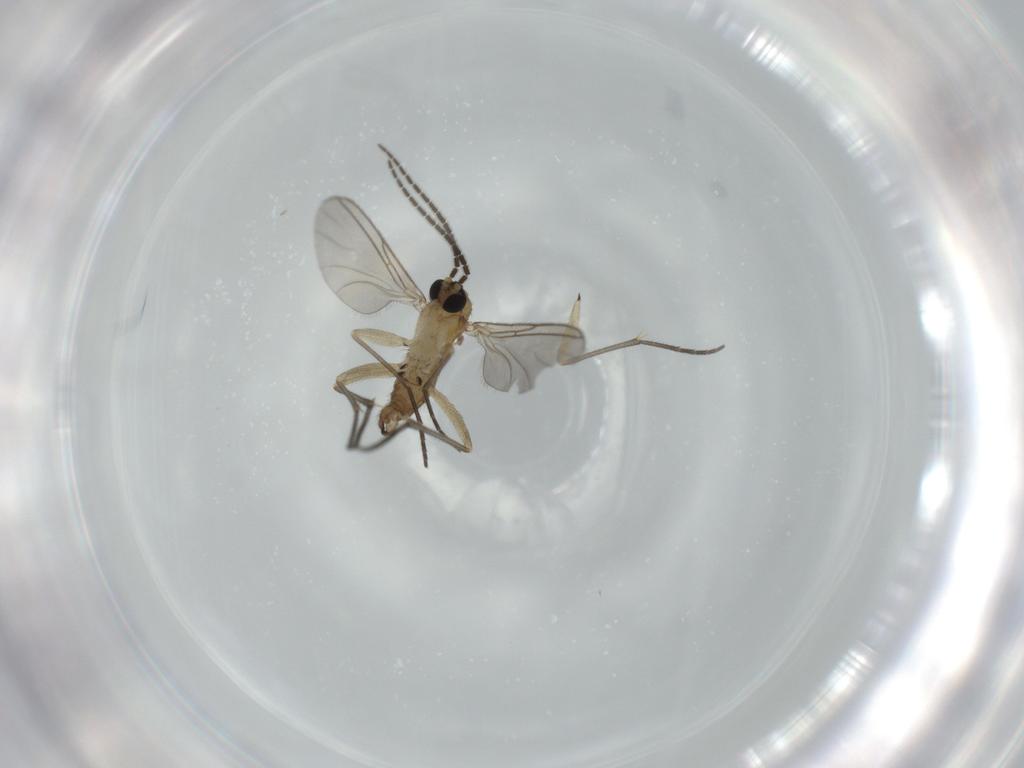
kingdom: Animalia
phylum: Arthropoda
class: Insecta
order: Diptera
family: Sciaridae
